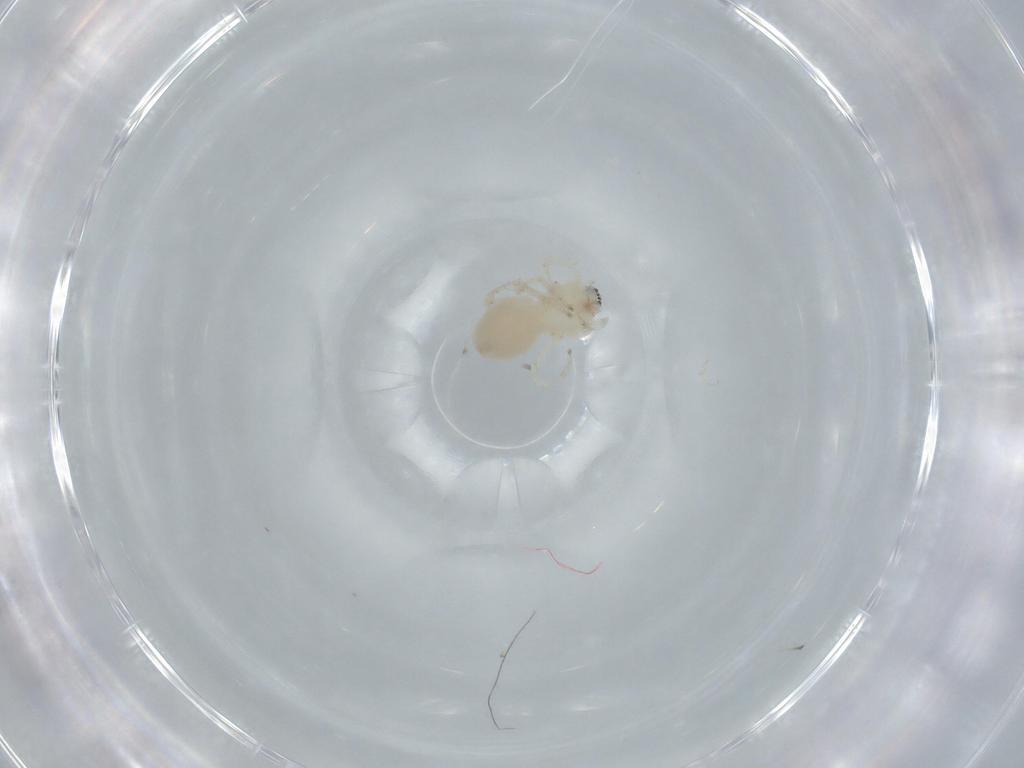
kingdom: Animalia
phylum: Arthropoda
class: Arachnida
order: Araneae
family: Anyphaenidae
